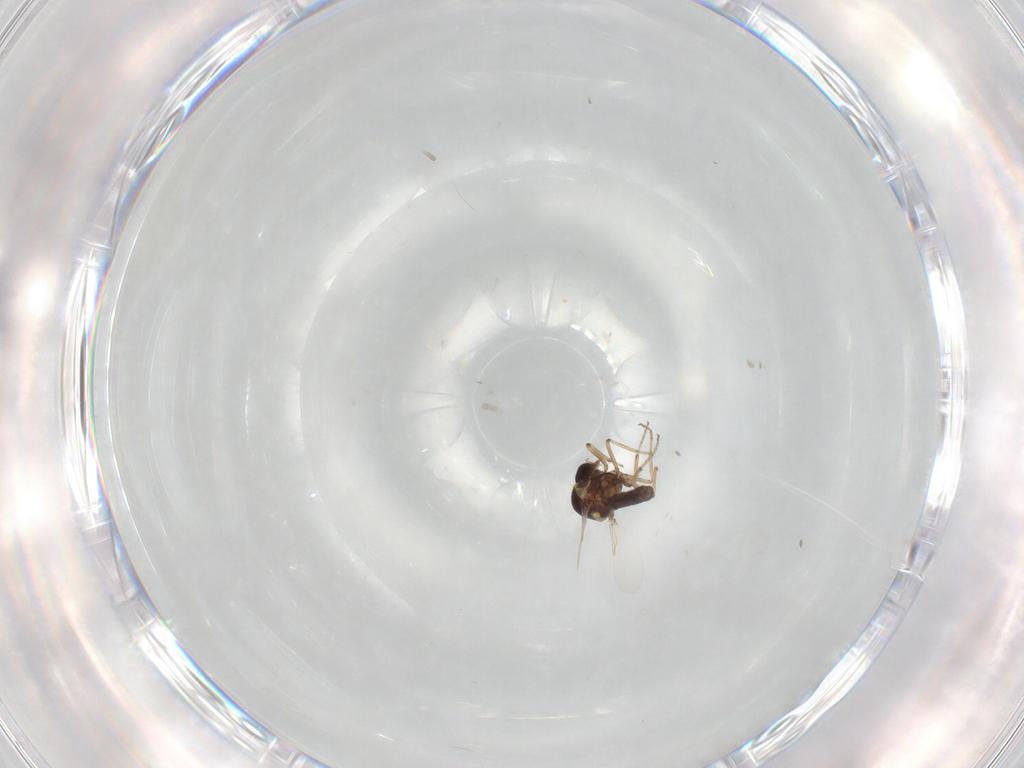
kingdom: Animalia
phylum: Arthropoda
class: Insecta
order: Diptera
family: Ceratopogonidae
